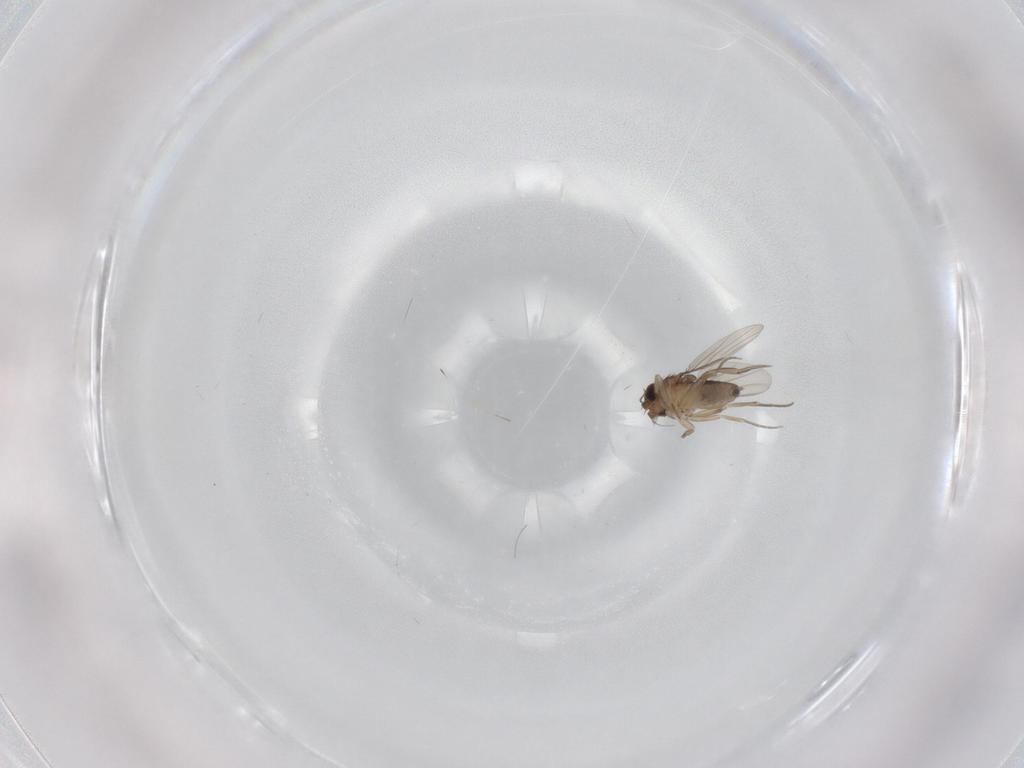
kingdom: Animalia
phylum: Arthropoda
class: Insecta
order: Diptera
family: Phoridae
